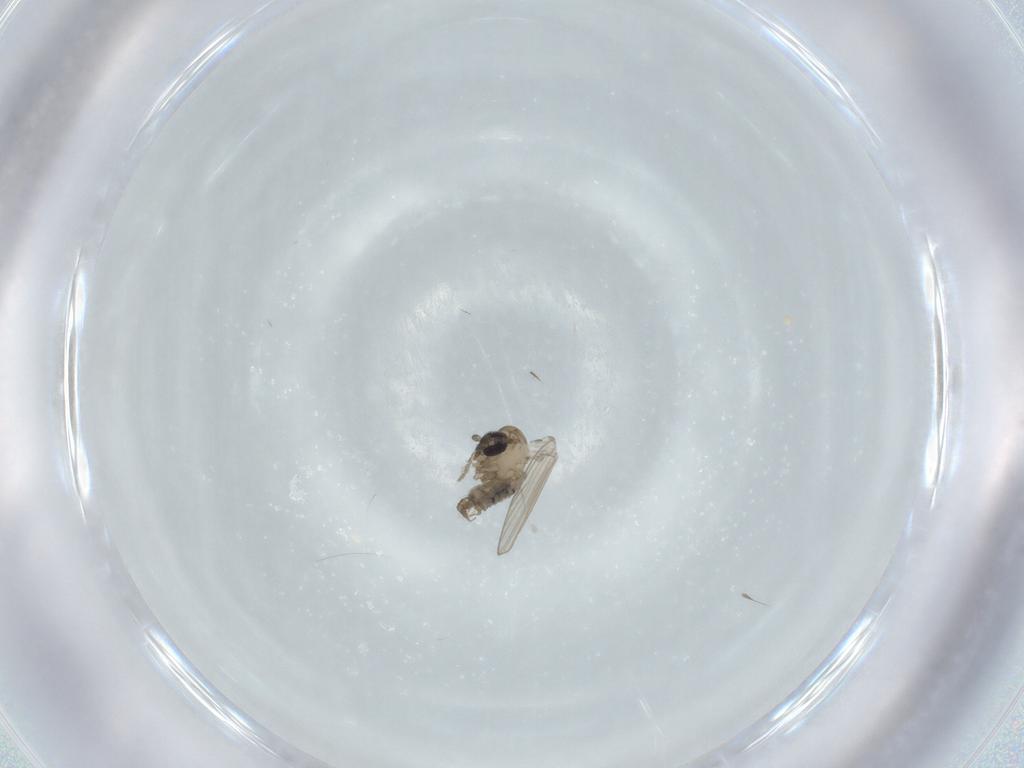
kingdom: Animalia
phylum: Arthropoda
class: Insecta
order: Diptera
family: Psychodidae
